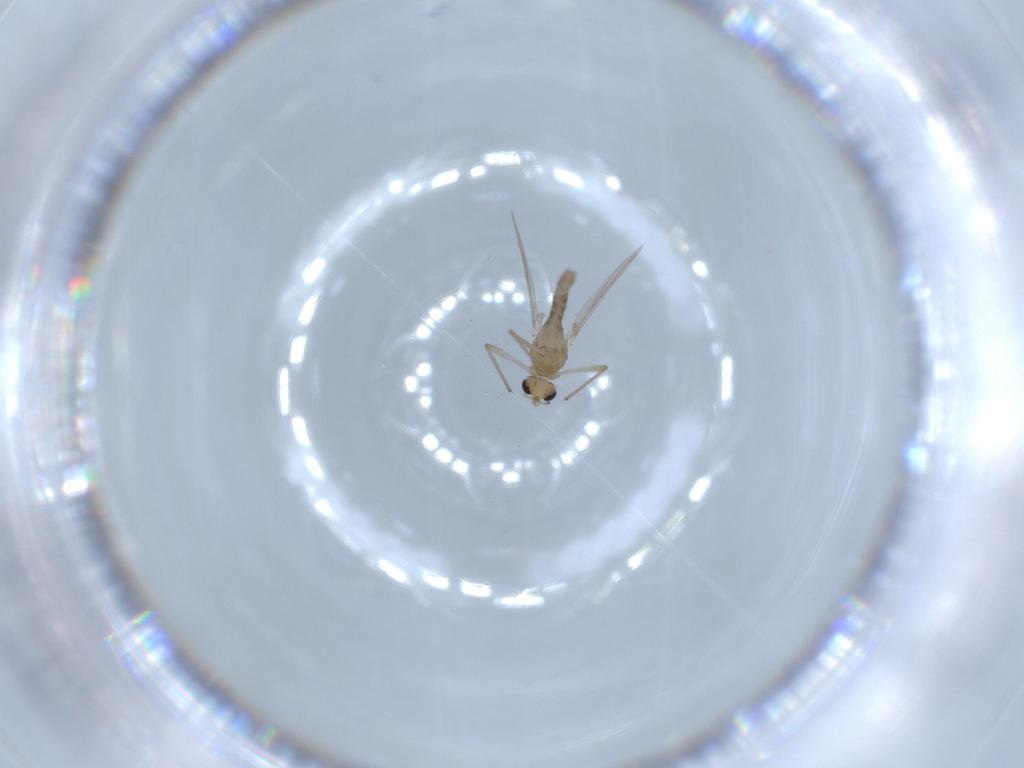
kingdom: Animalia
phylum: Arthropoda
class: Insecta
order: Diptera
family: Chironomidae
